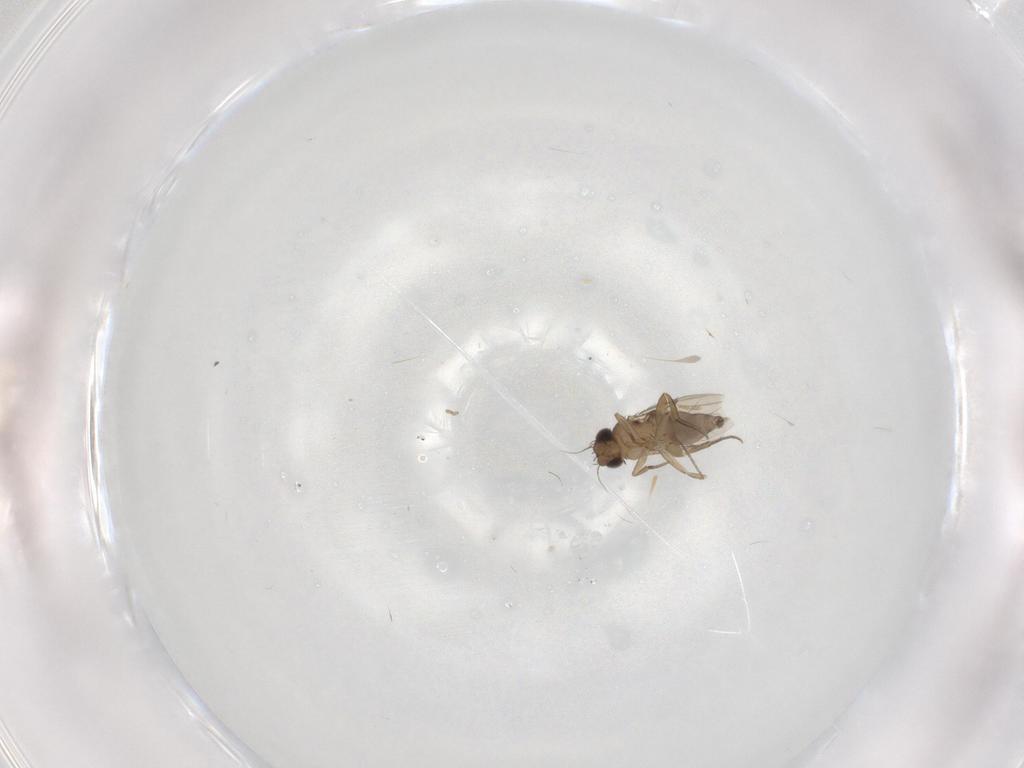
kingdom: Animalia
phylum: Arthropoda
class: Insecta
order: Diptera
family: Phoridae
